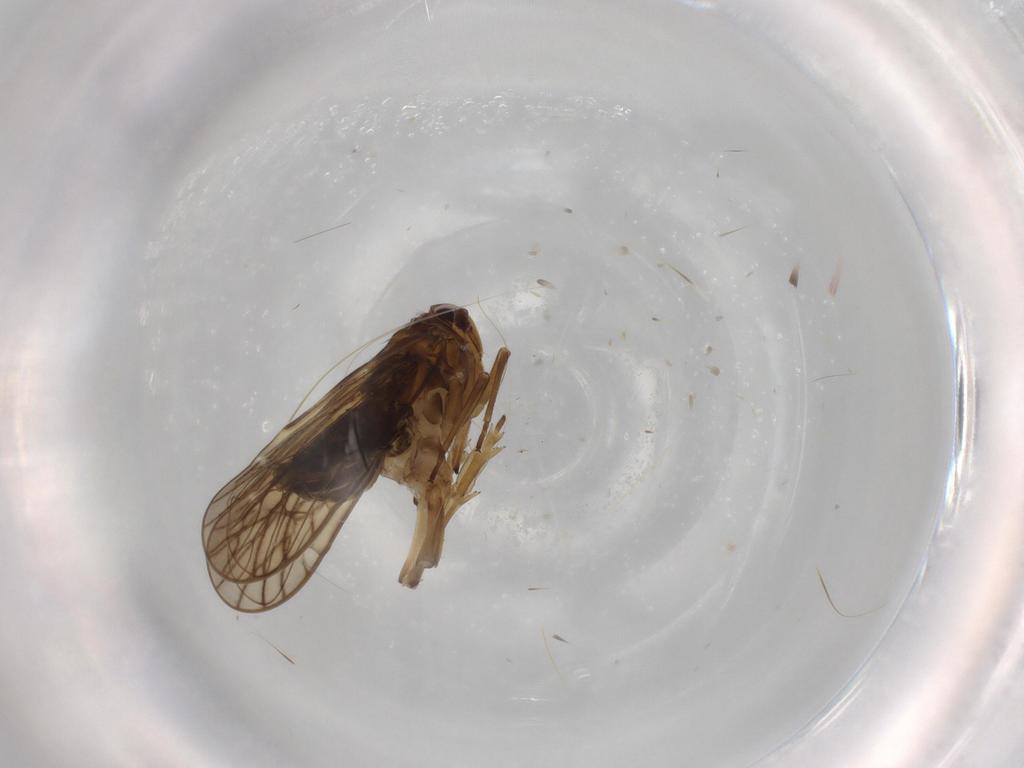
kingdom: Animalia
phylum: Arthropoda
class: Insecta
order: Hemiptera
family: Delphacidae
